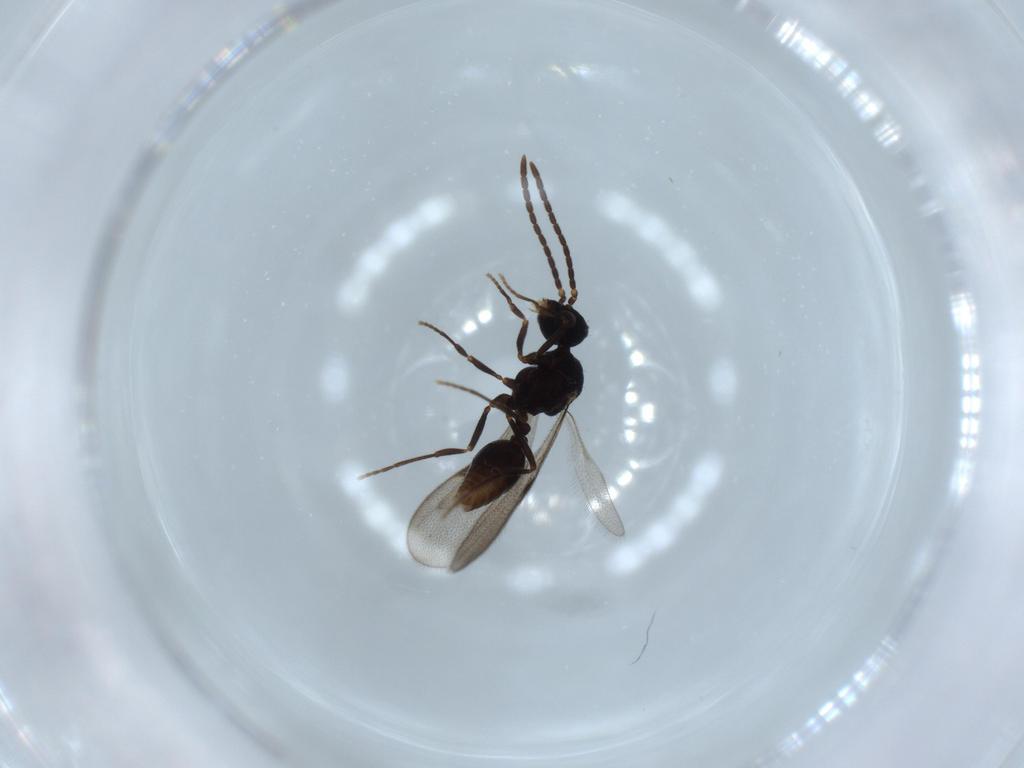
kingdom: Animalia
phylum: Arthropoda
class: Insecta
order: Hymenoptera
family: Formicidae
